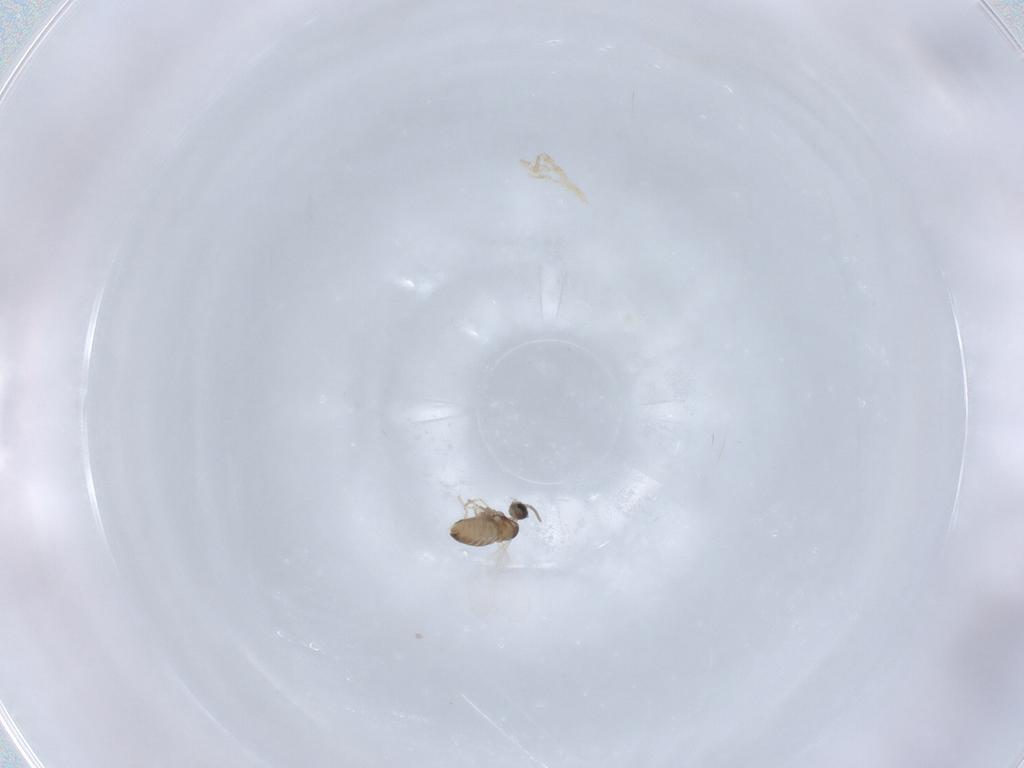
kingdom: Animalia
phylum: Arthropoda
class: Insecta
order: Diptera
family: Cecidomyiidae
